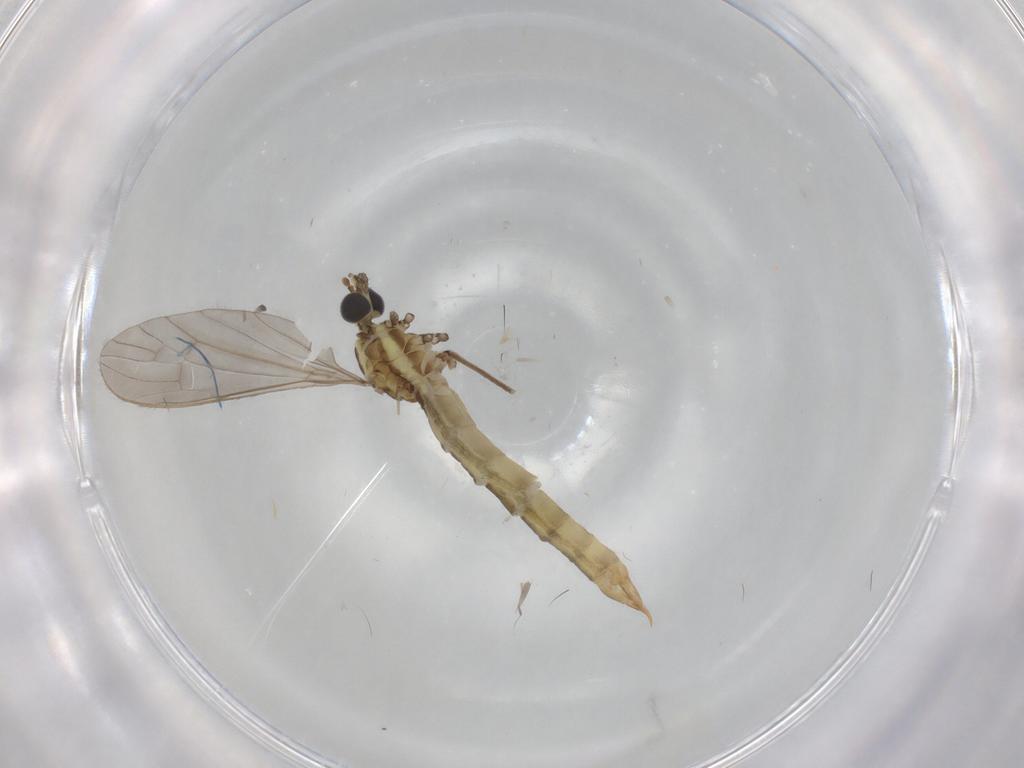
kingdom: Animalia
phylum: Arthropoda
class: Insecta
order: Diptera
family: Limoniidae
